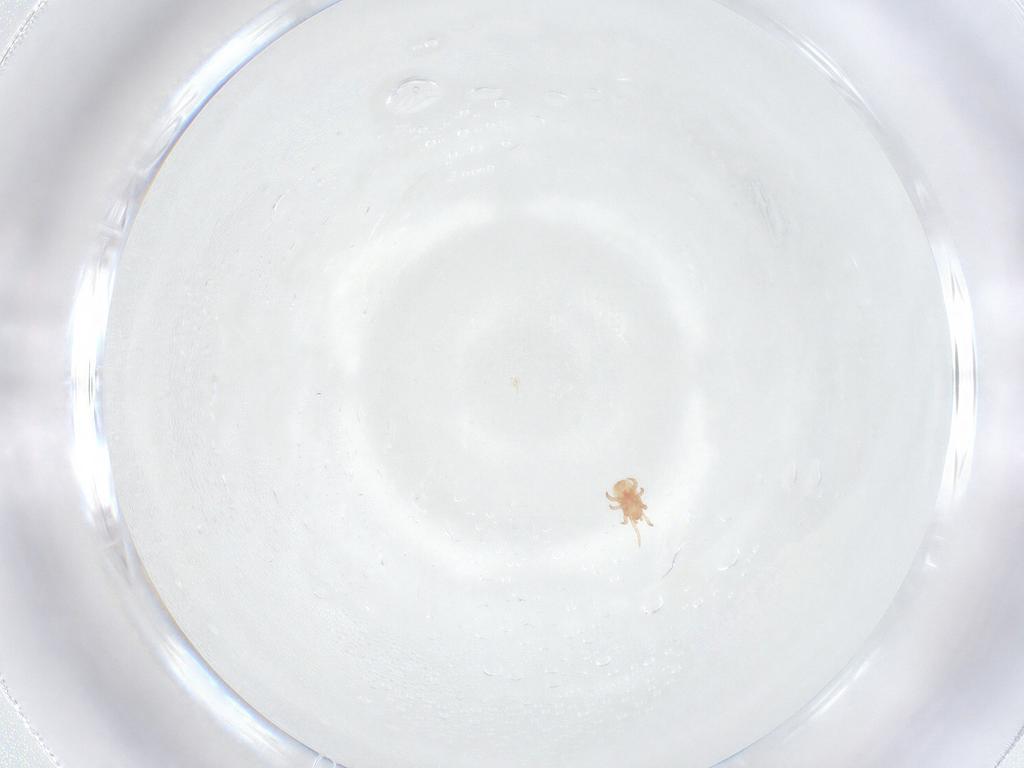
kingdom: Animalia
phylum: Arthropoda
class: Arachnida
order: Mesostigmata
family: Digamasellidae
